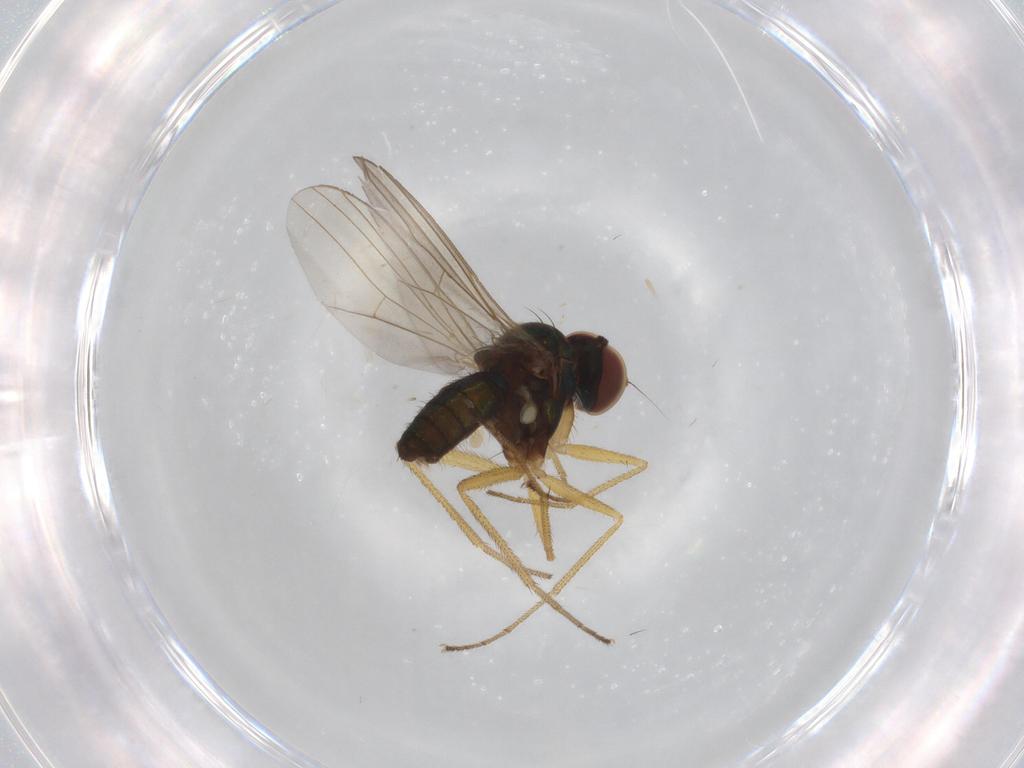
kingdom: Animalia
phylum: Arthropoda
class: Insecta
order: Diptera
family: Dolichopodidae
